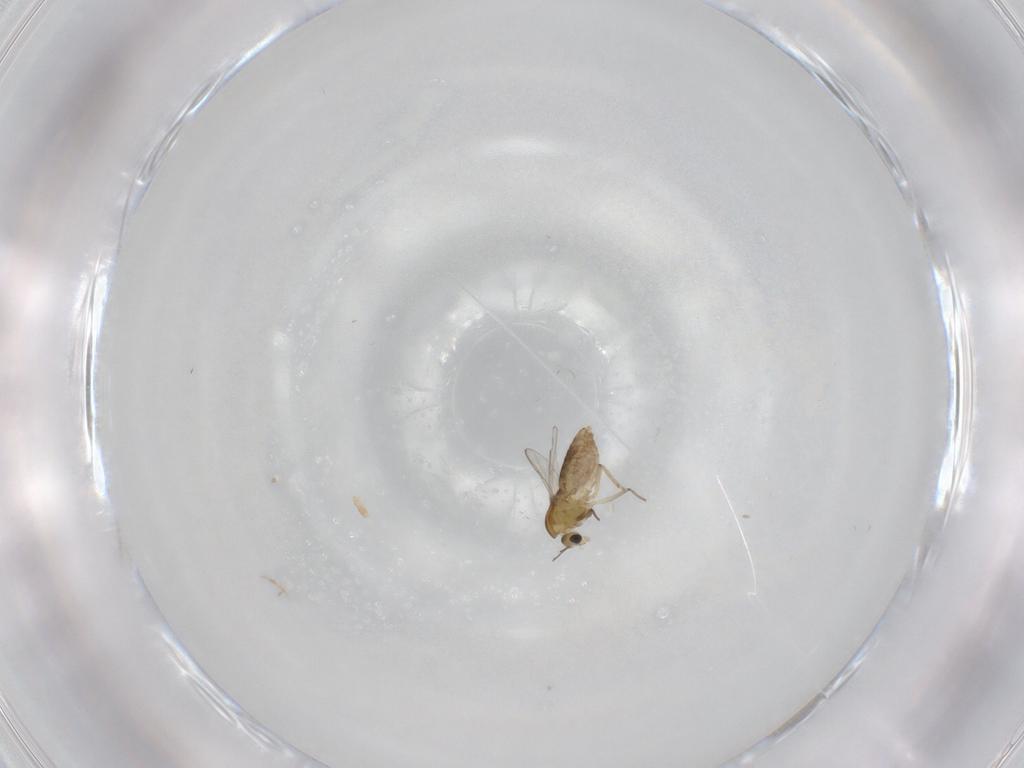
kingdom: Animalia
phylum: Arthropoda
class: Insecta
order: Diptera
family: Chironomidae
